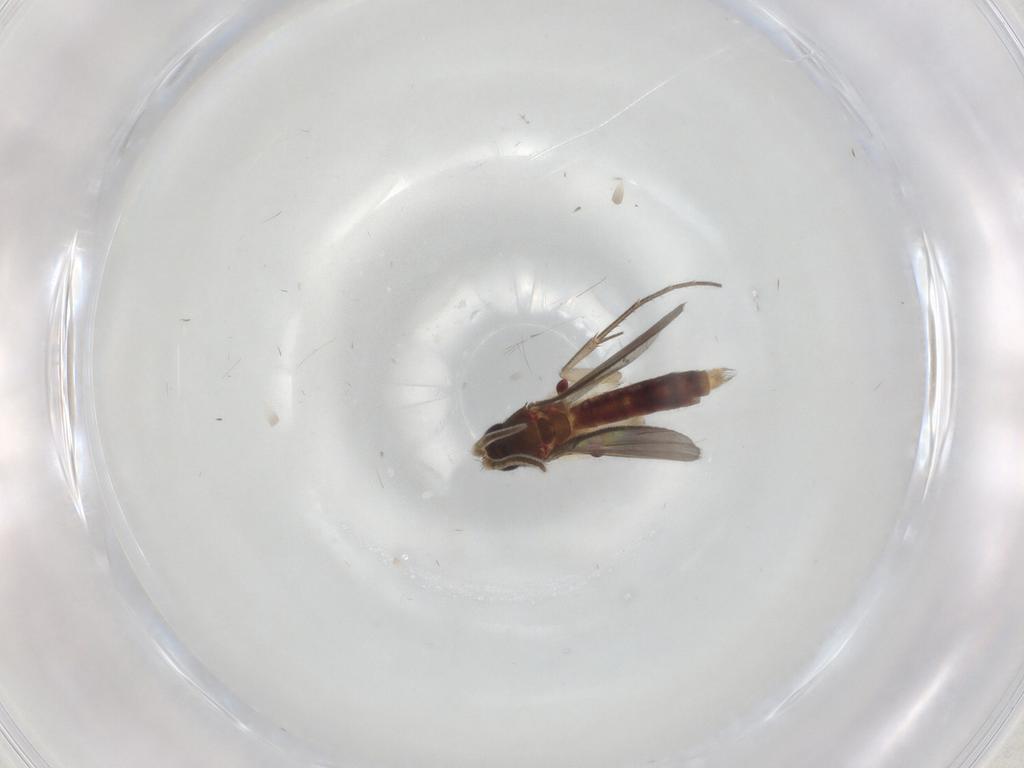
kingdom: Animalia
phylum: Arthropoda
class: Insecta
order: Diptera
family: Mycetophilidae
